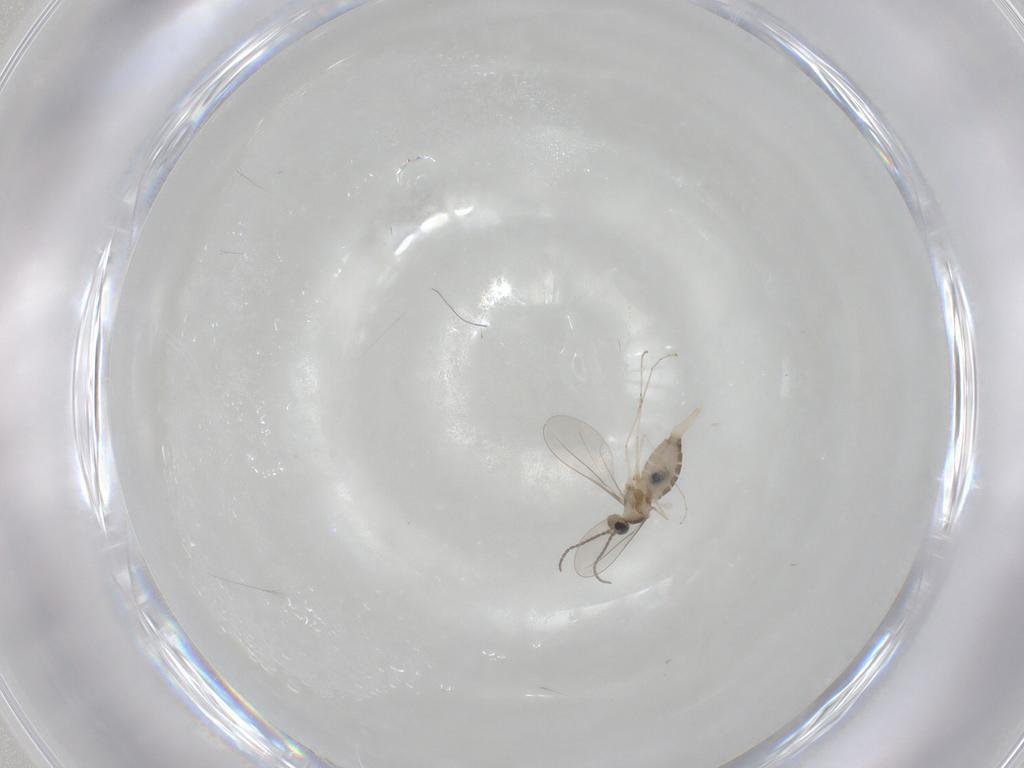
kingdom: Animalia
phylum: Arthropoda
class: Insecta
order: Diptera
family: Cecidomyiidae
